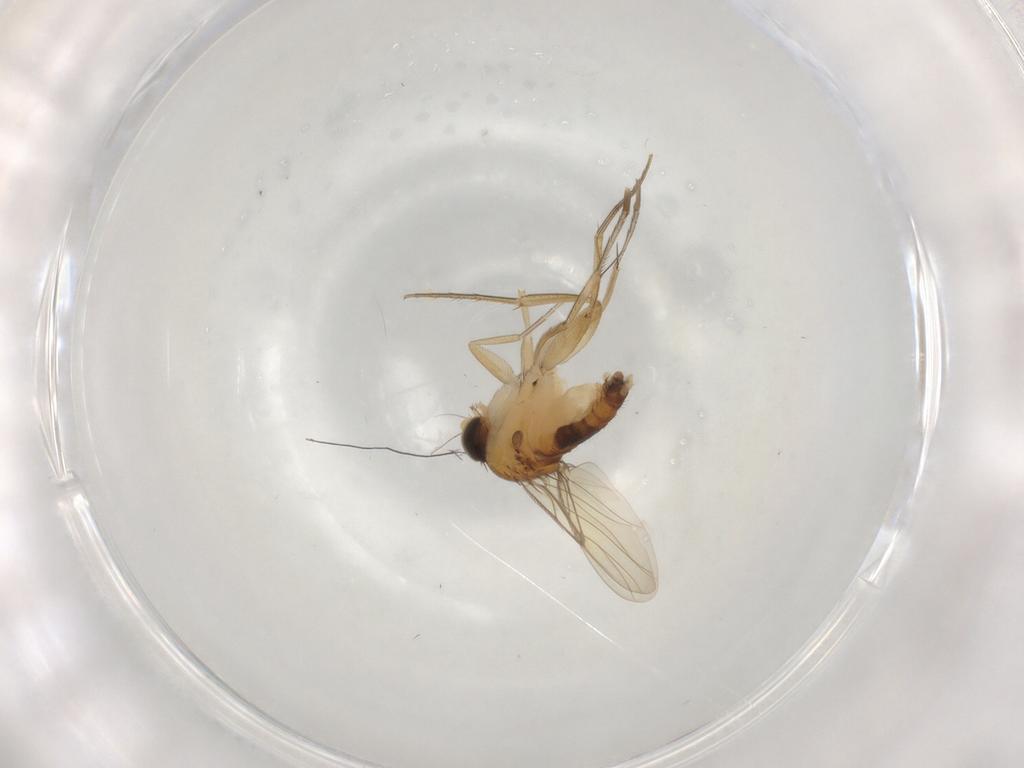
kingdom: Animalia
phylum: Arthropoda
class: Insecta
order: Diptera
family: Phoridae
